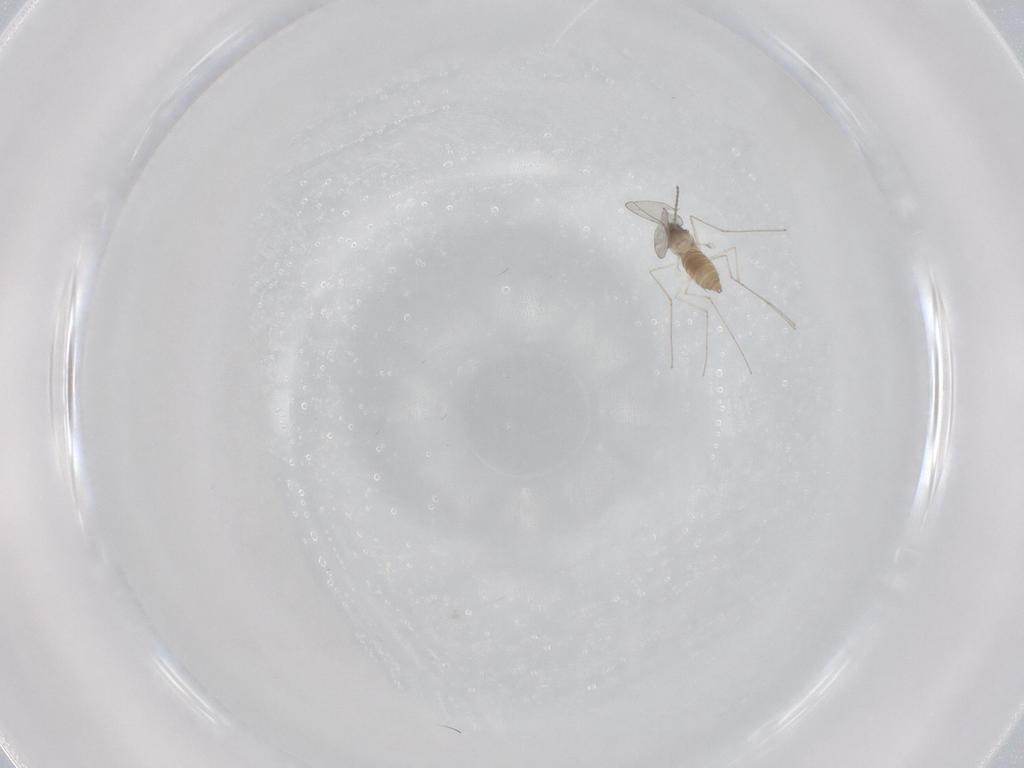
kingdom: Animalia
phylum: Arthropoda
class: Insecta
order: Diptera
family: Cecidomyiidae
